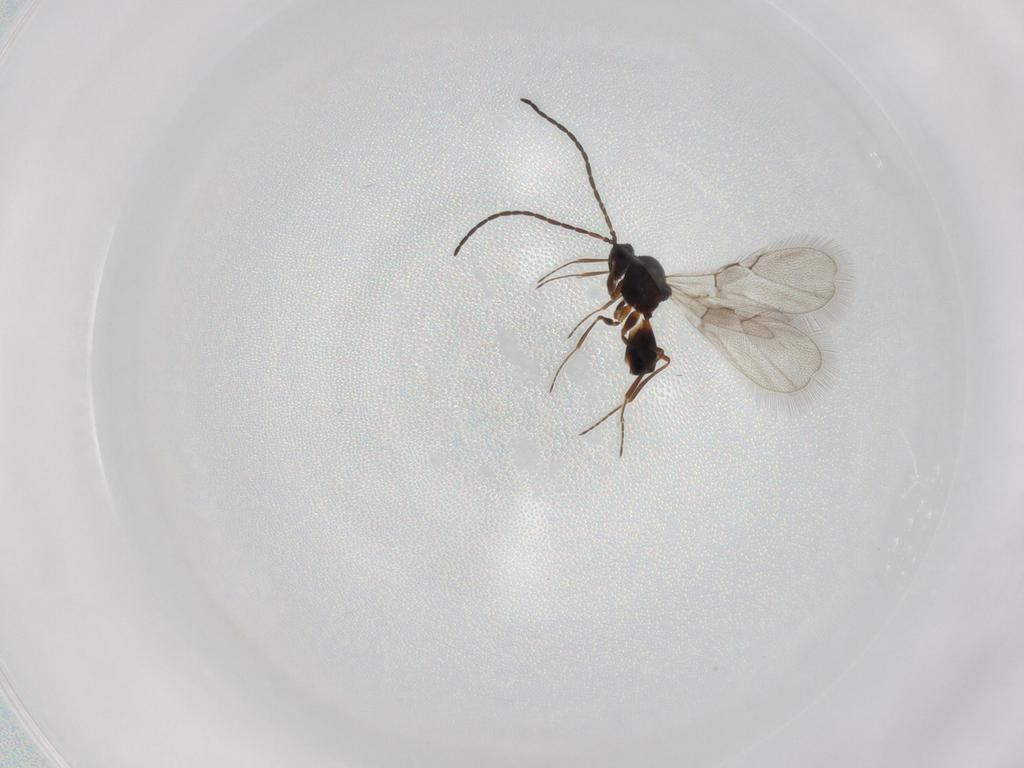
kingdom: Animalia
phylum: Arthropoda
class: Insecta
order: Hymenoptera
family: Figitidae
